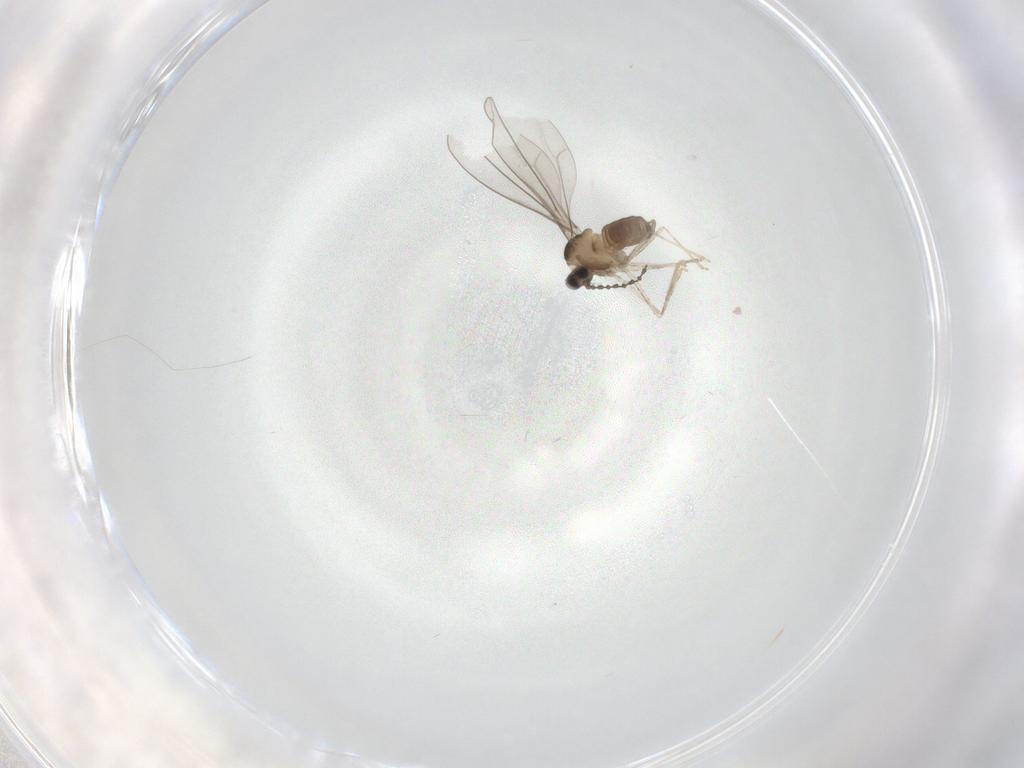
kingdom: Animalia
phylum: Arthropoda
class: Insecta
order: Diptera
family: Cecidomyiidae
